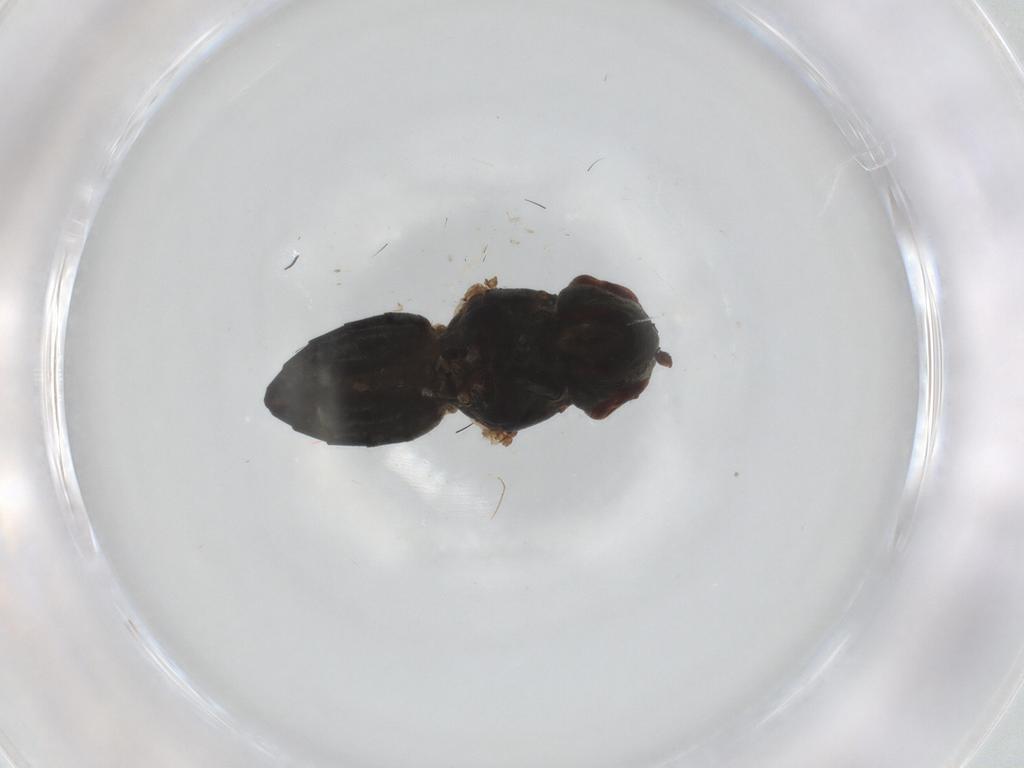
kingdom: Animalia
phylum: Arthropoda
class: Insecta
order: Diptera
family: Ephydridae
